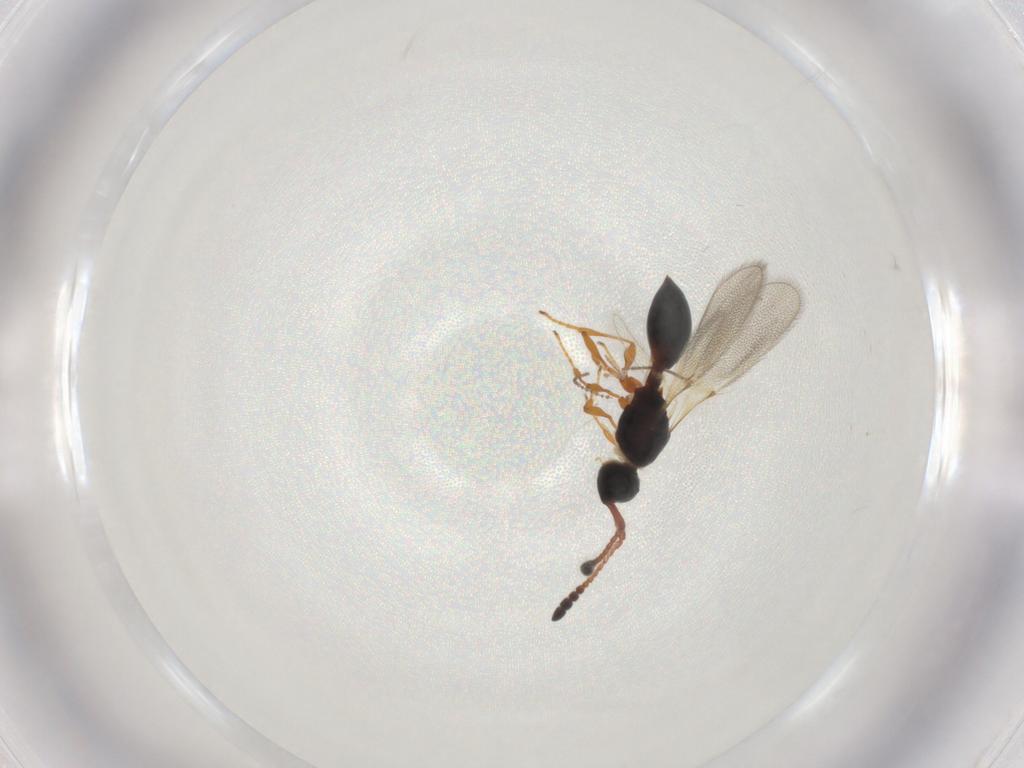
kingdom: Animalia
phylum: Arthropoda
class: Insecta
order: Hymenoptera
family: Diapriidae
